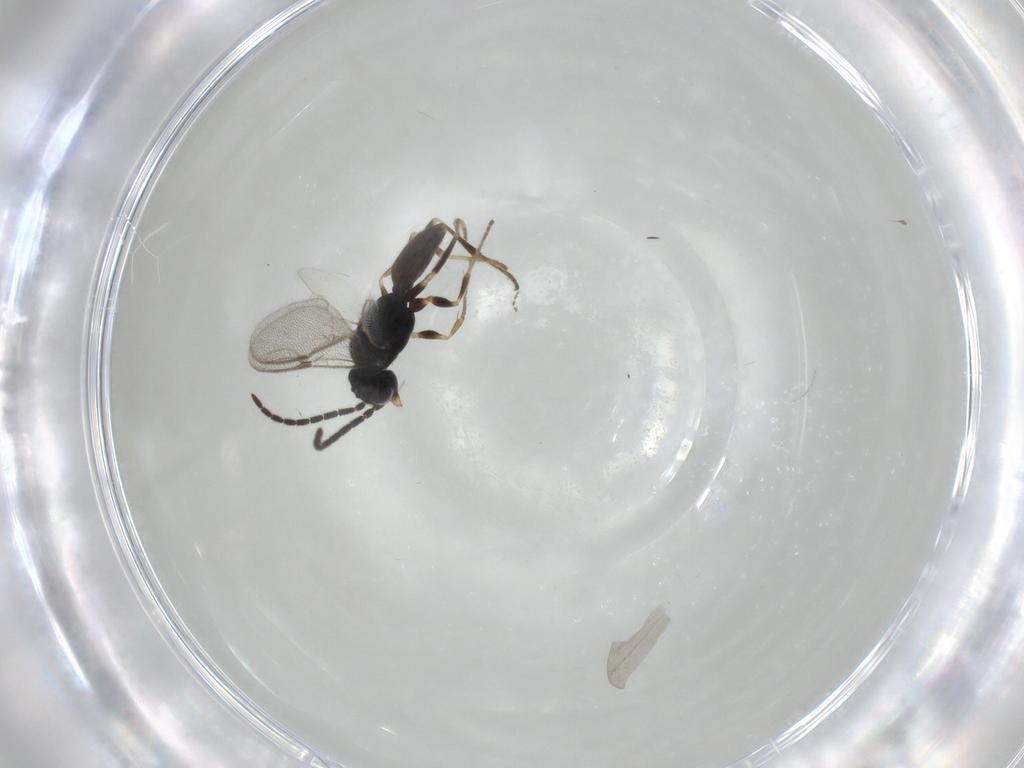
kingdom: Animalia
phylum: Arthropoda
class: Insecta
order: Hymenoptera
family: Dryinidae
